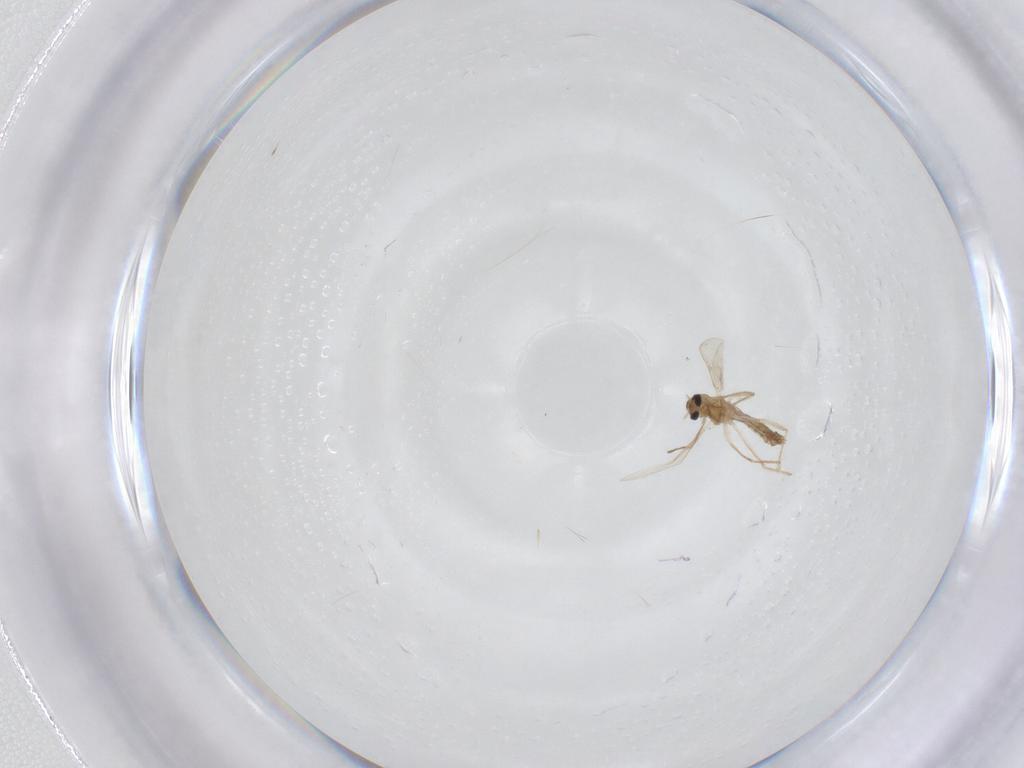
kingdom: Animalia
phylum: Arthropoda
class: Insecta
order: Diptera
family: Chironomidae
